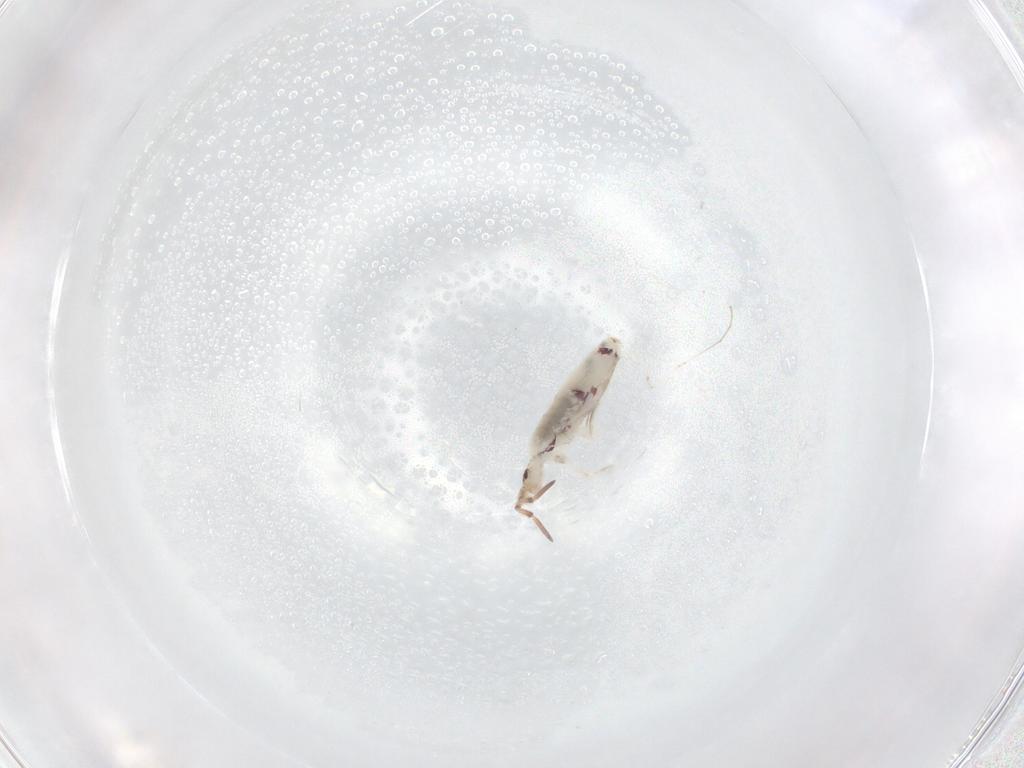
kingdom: Animalia
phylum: Arthropoda
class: Collembola
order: Entomobryomorpha
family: Entomobryidae
